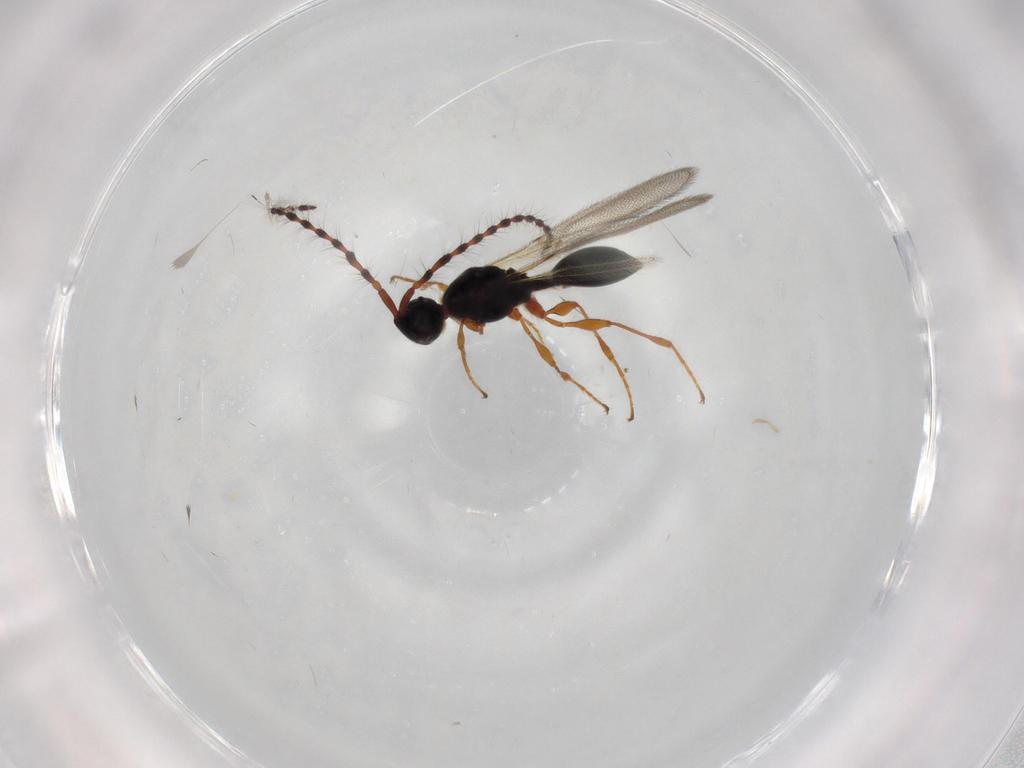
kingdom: Animalia
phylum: Arthropoda
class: Insecta
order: Hymenoptera
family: Diapriidae
